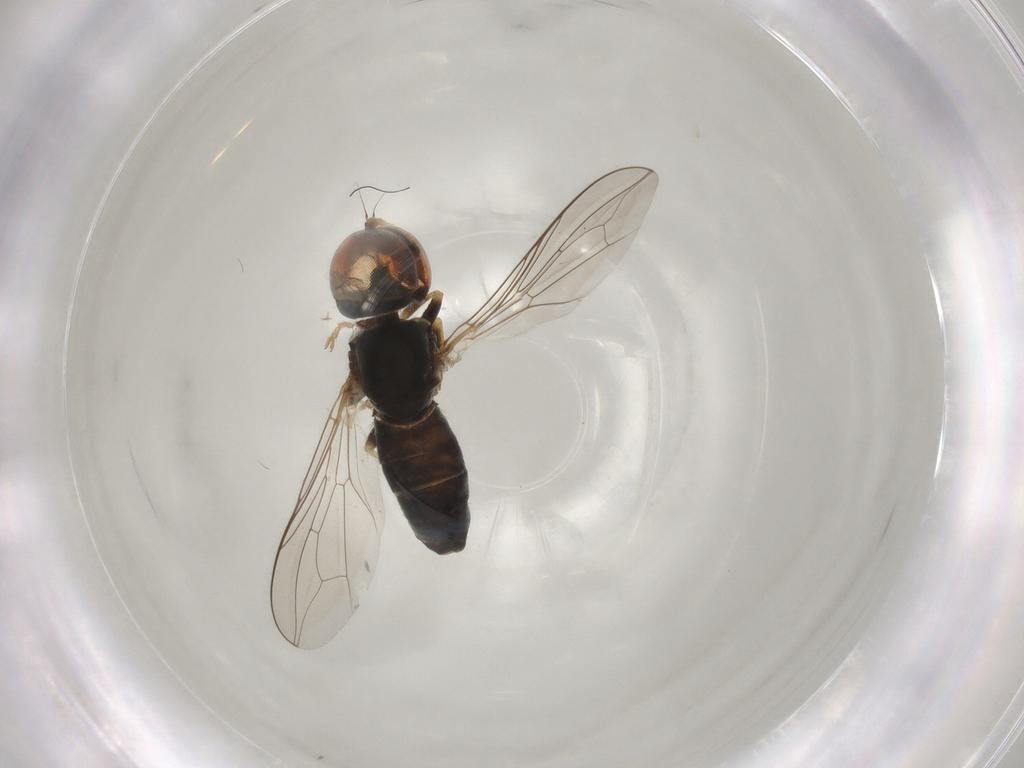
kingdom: Animalia
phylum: Arthropoda
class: Insecta
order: Diptera
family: Pipunculidae
